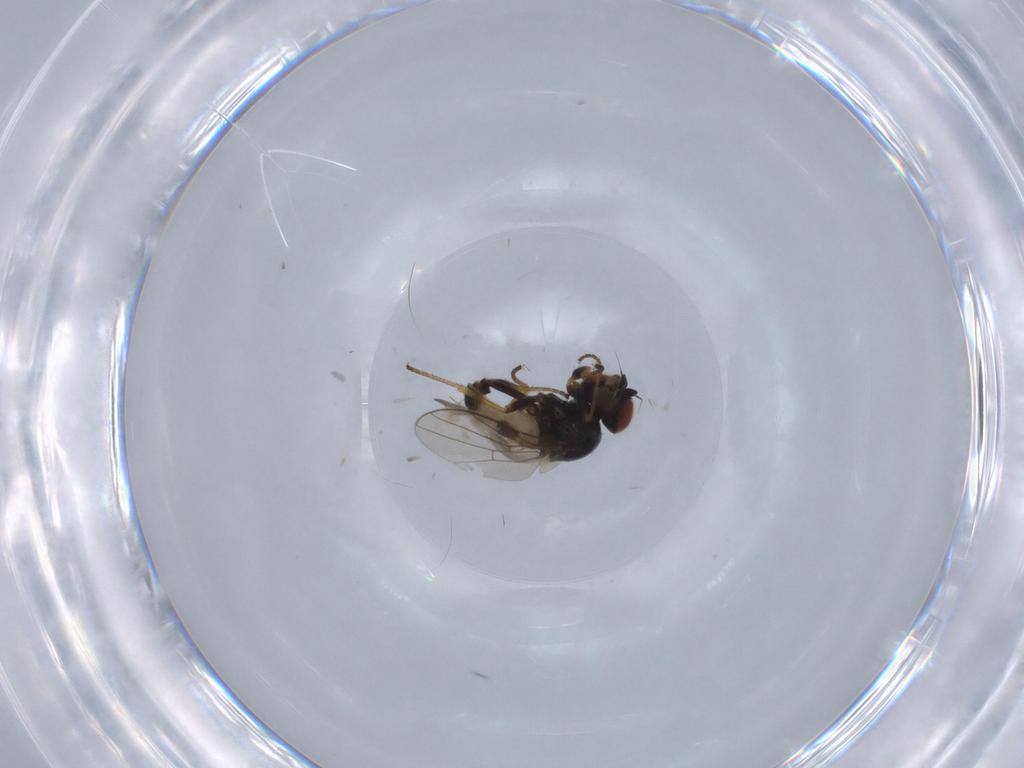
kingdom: Animalia
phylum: Arthropoda
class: Insecta
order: Diptera
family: Chloropidae
